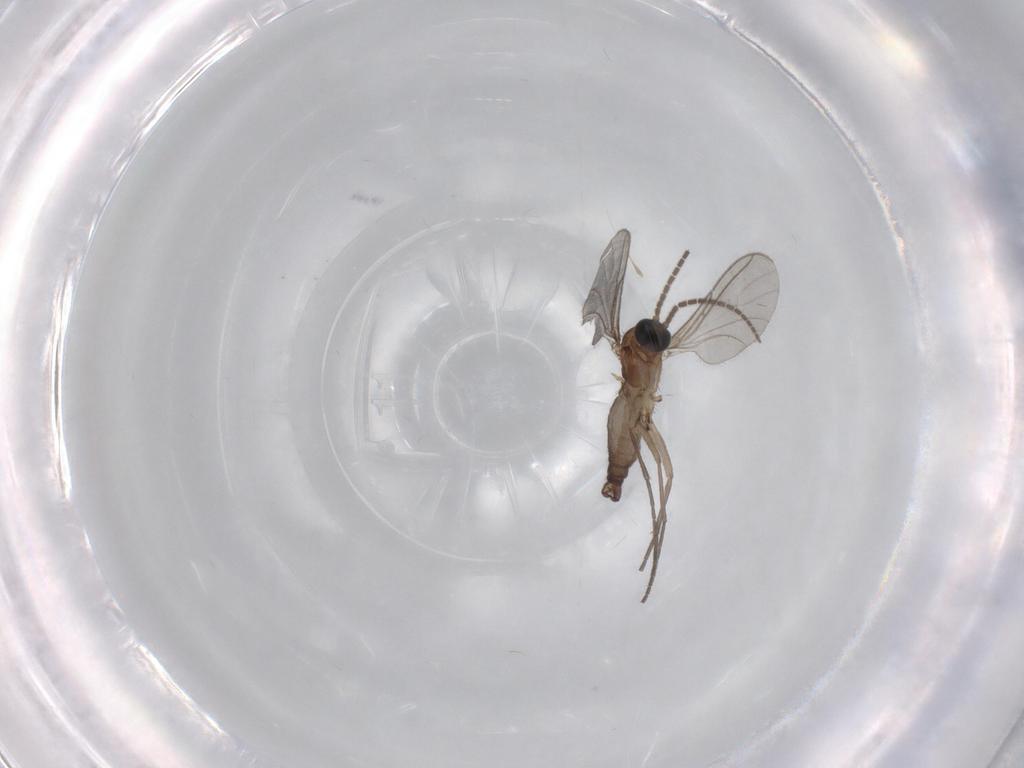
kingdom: Animalia
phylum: Arthropoda
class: Insecta
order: Diptera
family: Sciaridae
